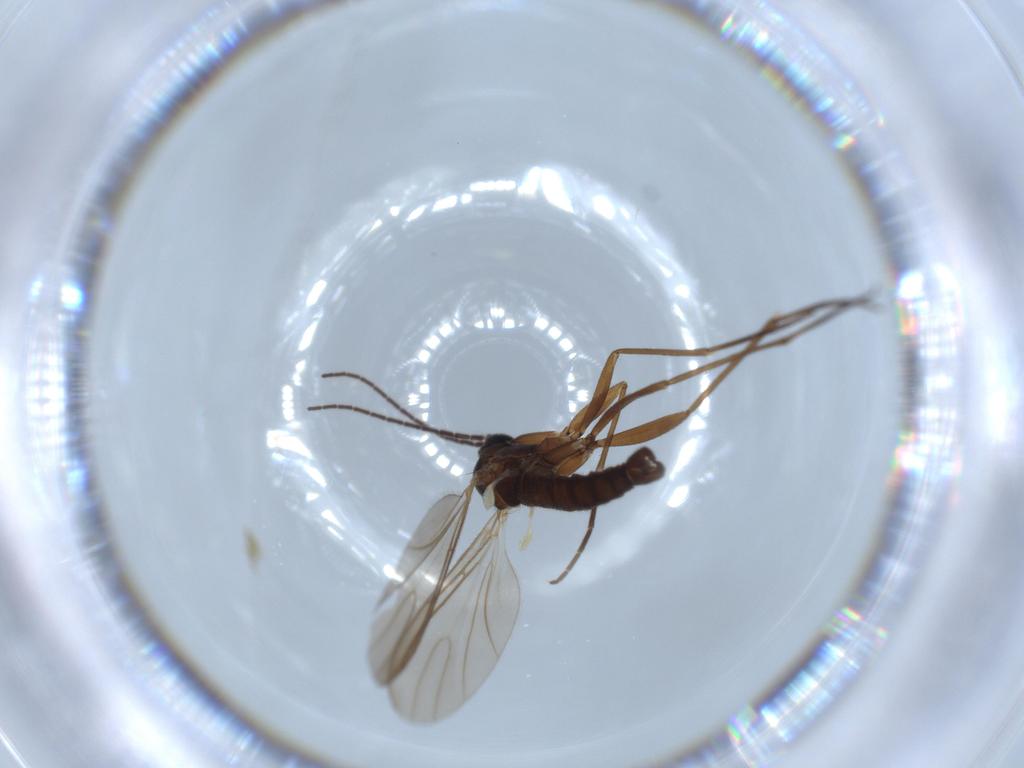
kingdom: Animalia
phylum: Arthropoda
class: Insecta
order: Diptera
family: Sciaridae
